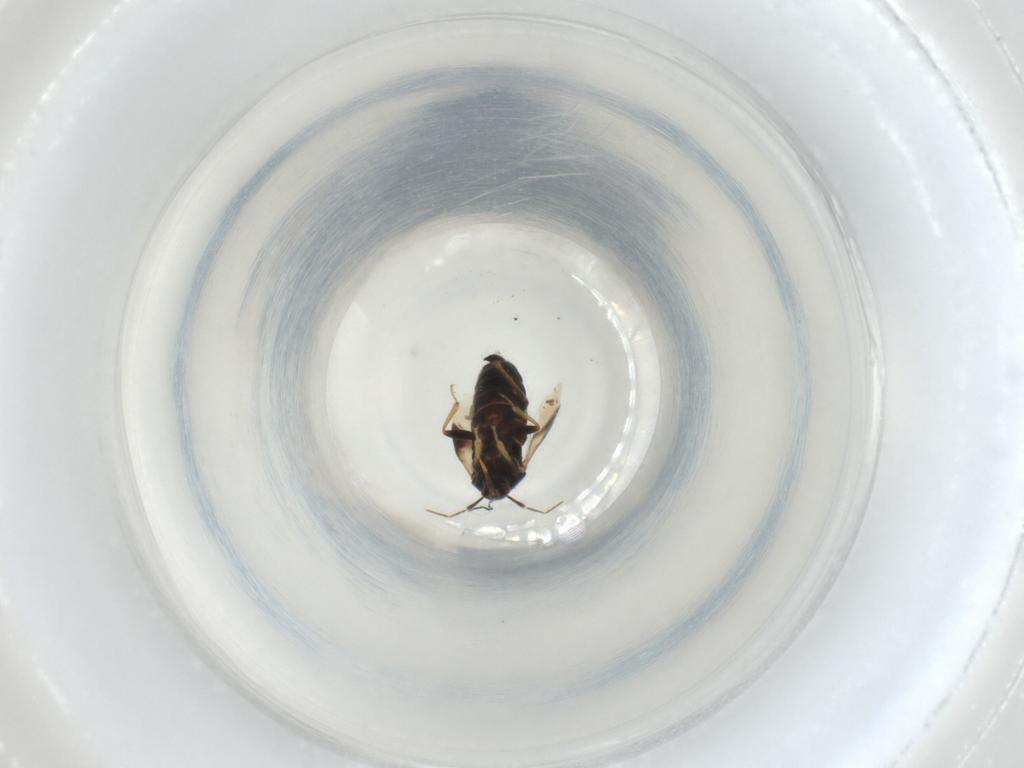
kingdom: Animalia
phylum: Arthropoda
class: Insecta
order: Hemiptera
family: Anthocoridae
